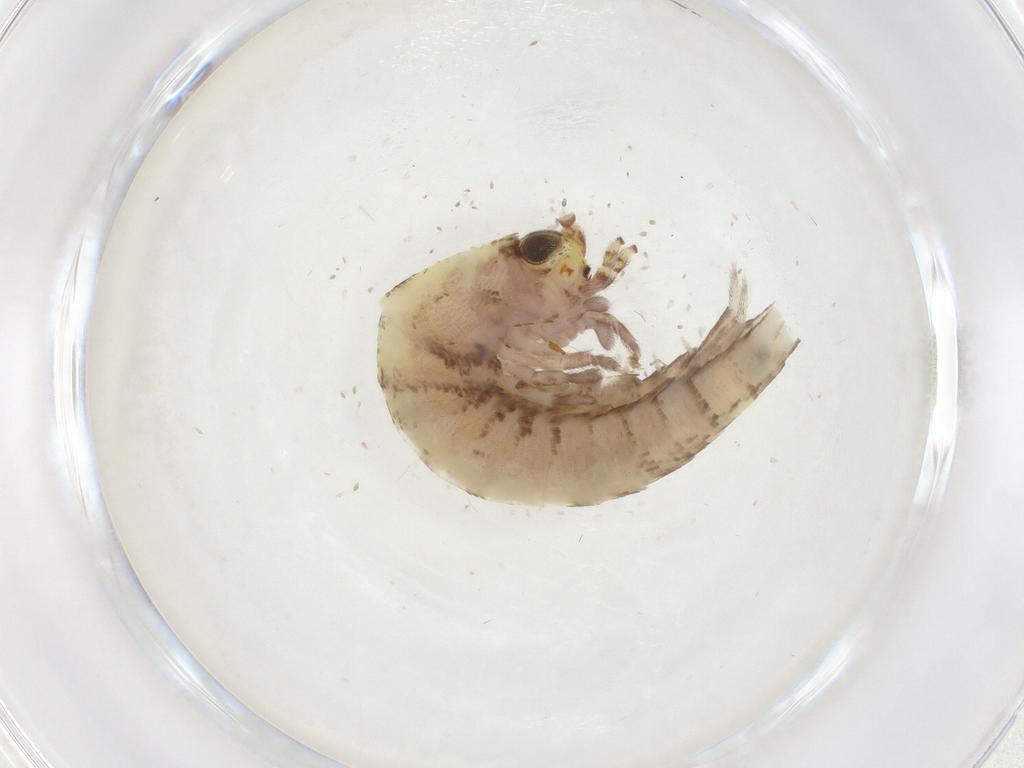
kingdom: Animalia
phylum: Arthropoda
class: Insecta
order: Archaeognatha
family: Machilidae
